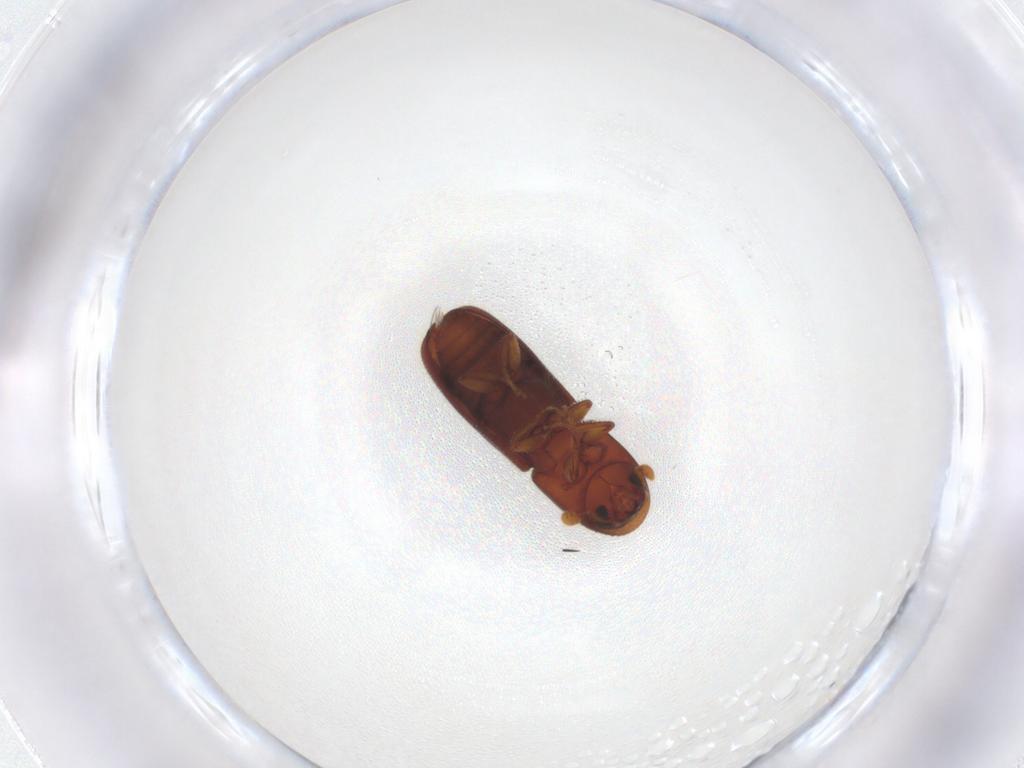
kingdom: Animalia
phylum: Arthropoda
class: Insecta
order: Coleoptera
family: Curculionidae
